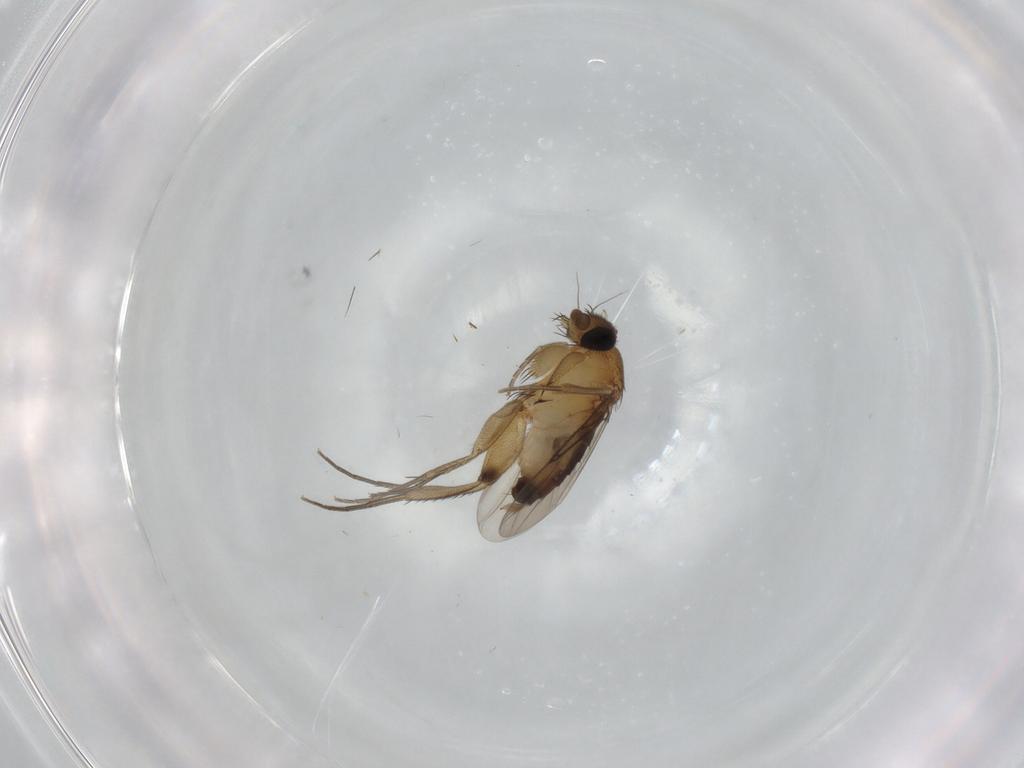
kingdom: Animalia
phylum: Arthropoda
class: Insecta
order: Diptera
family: Phoridae
